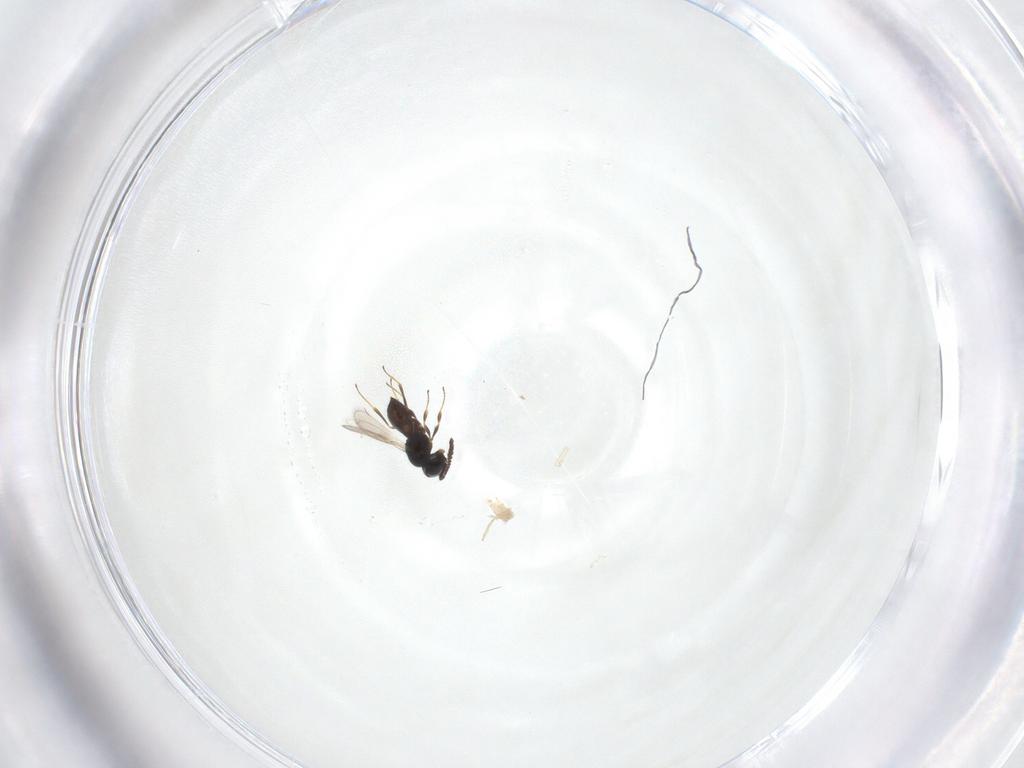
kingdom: Animalia
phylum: Arthropoda
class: Insecta
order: Hymenoptera
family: Scelionidae
